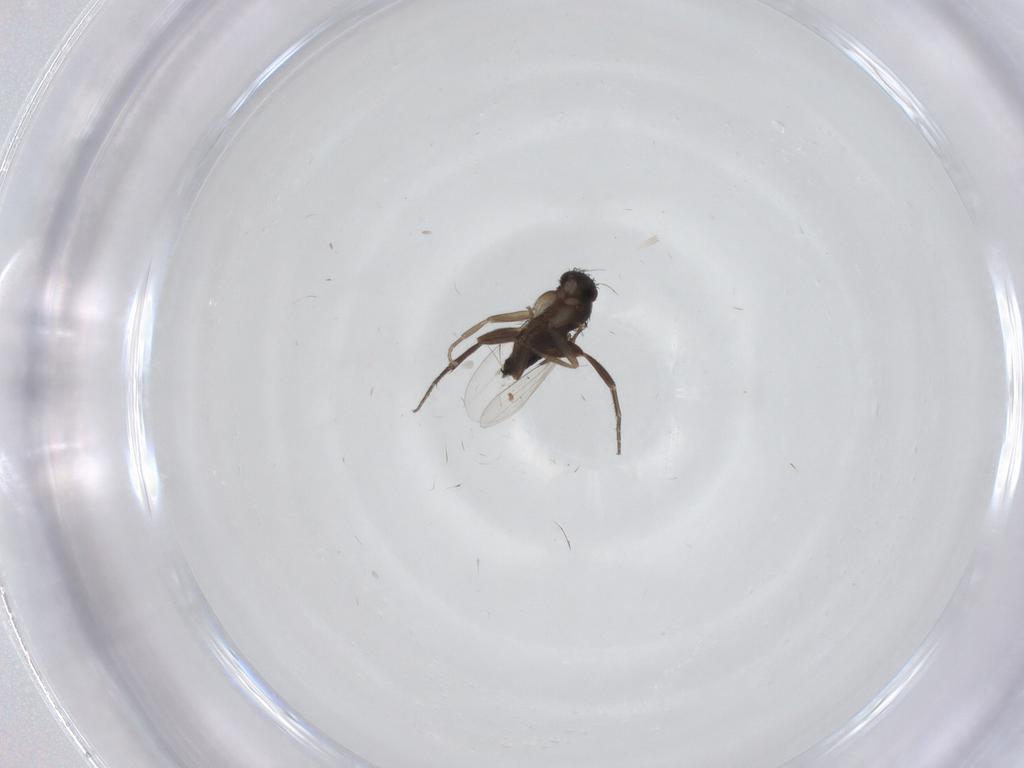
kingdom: Animalia
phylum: Arthropoda
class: Insecta
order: Diptera
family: Phoridae
